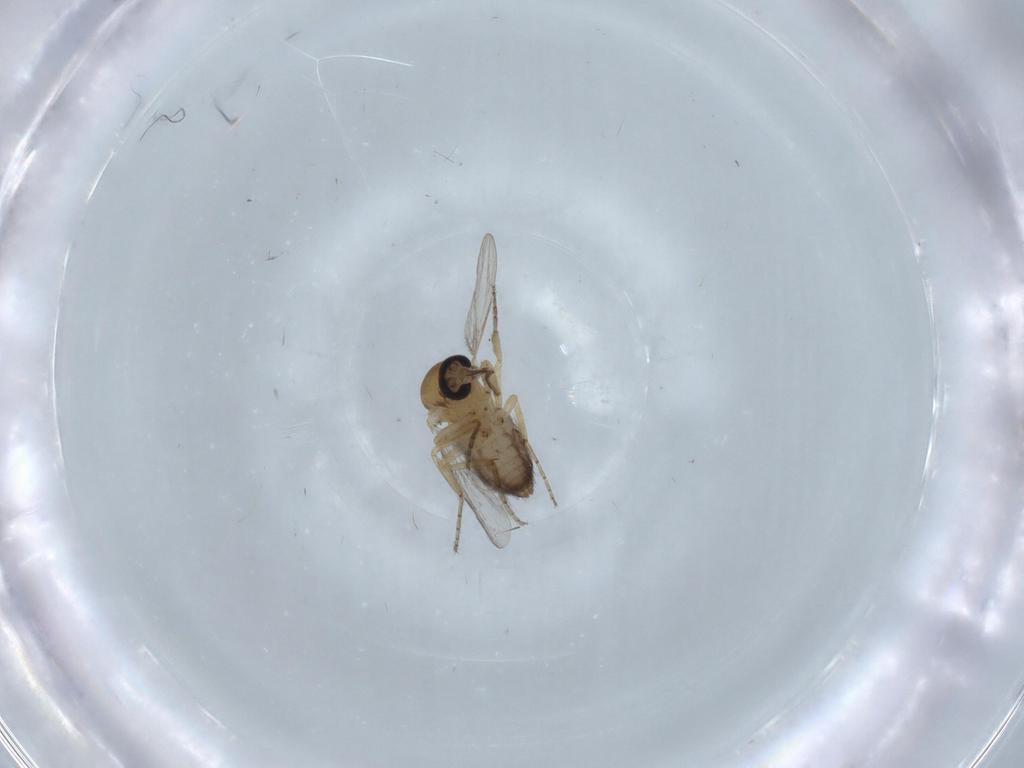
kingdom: Animalia
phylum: Arthropoda
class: Insecta
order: Diptera
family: Ceratopogonidae
